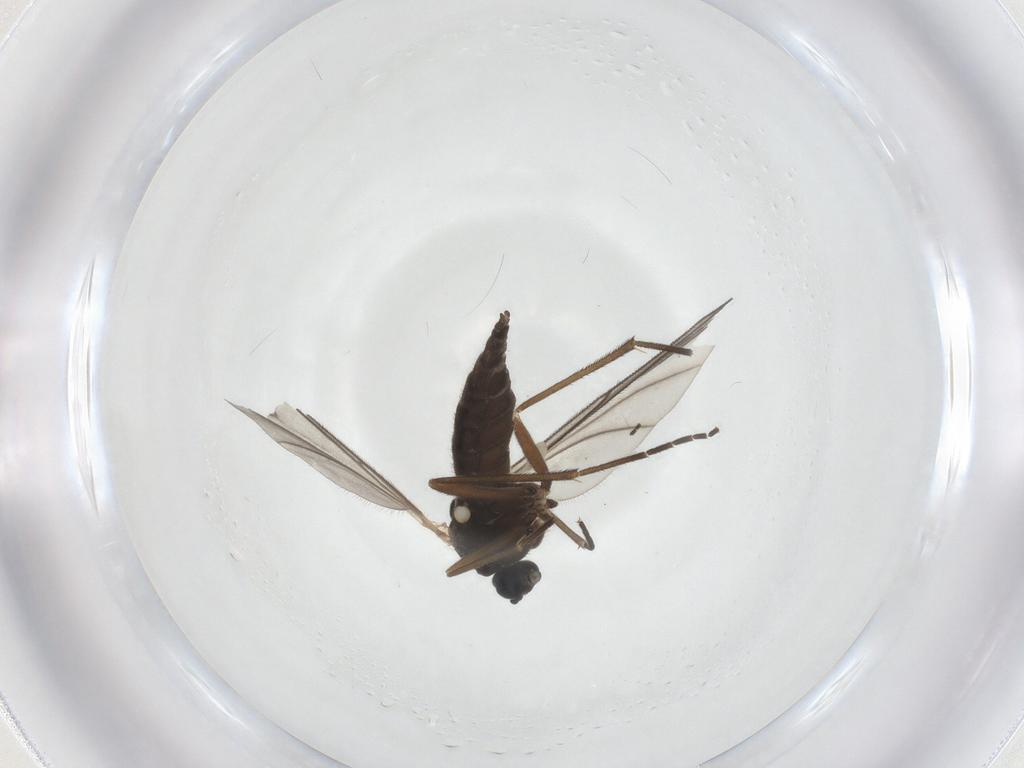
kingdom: Animalia
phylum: Arthropoda
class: Insecta
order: Diptera
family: Sciaridae
